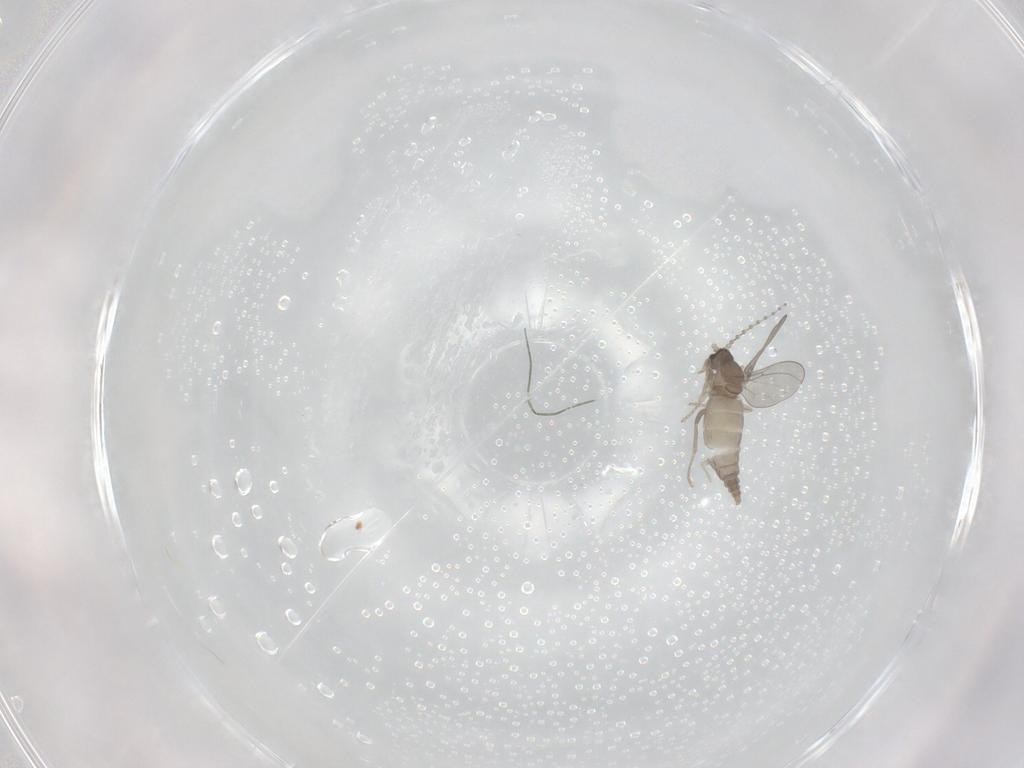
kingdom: Animalia
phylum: Arthropoda
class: Insecta
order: Diptera
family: Cecidomyiidae
